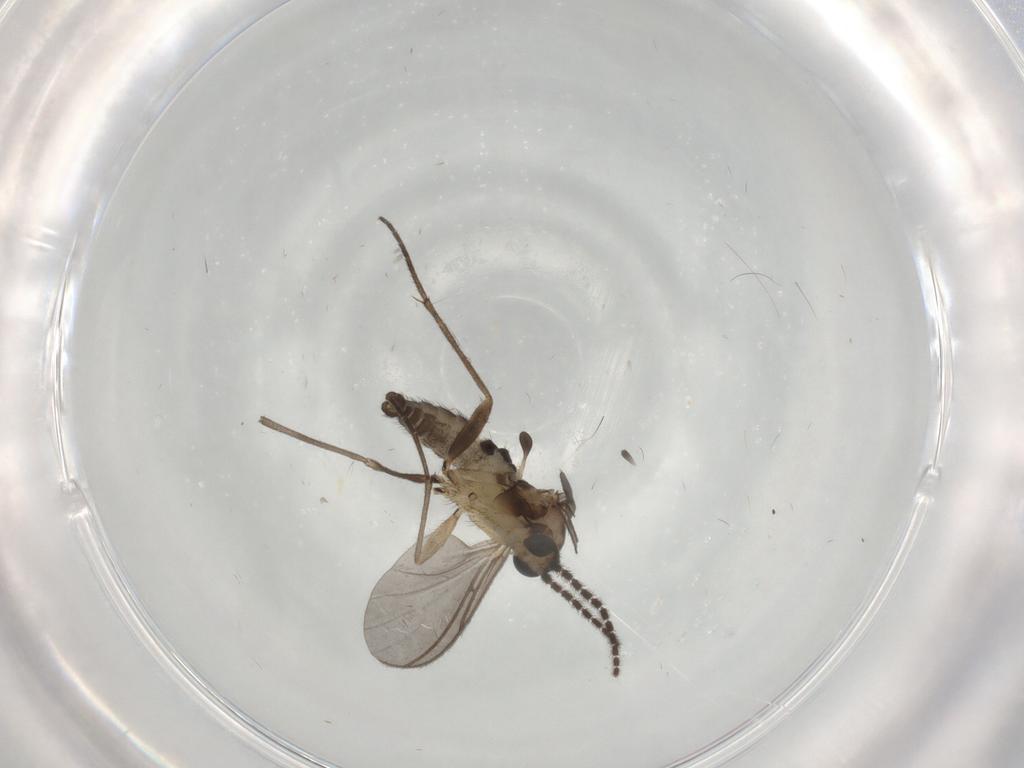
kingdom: Animalia
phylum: Arthropoda
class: Insecta
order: Diptera
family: Sciaridae
